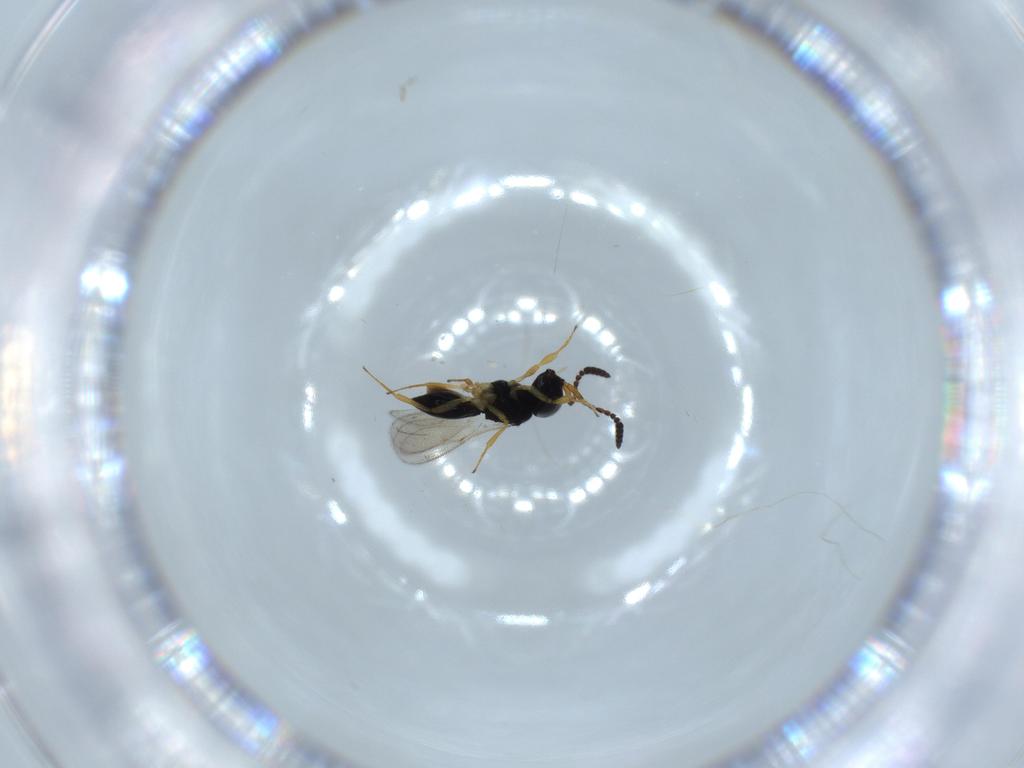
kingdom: Animalia
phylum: Arthropoda
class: Insecta
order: Hymenoptera
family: Scelionidae
